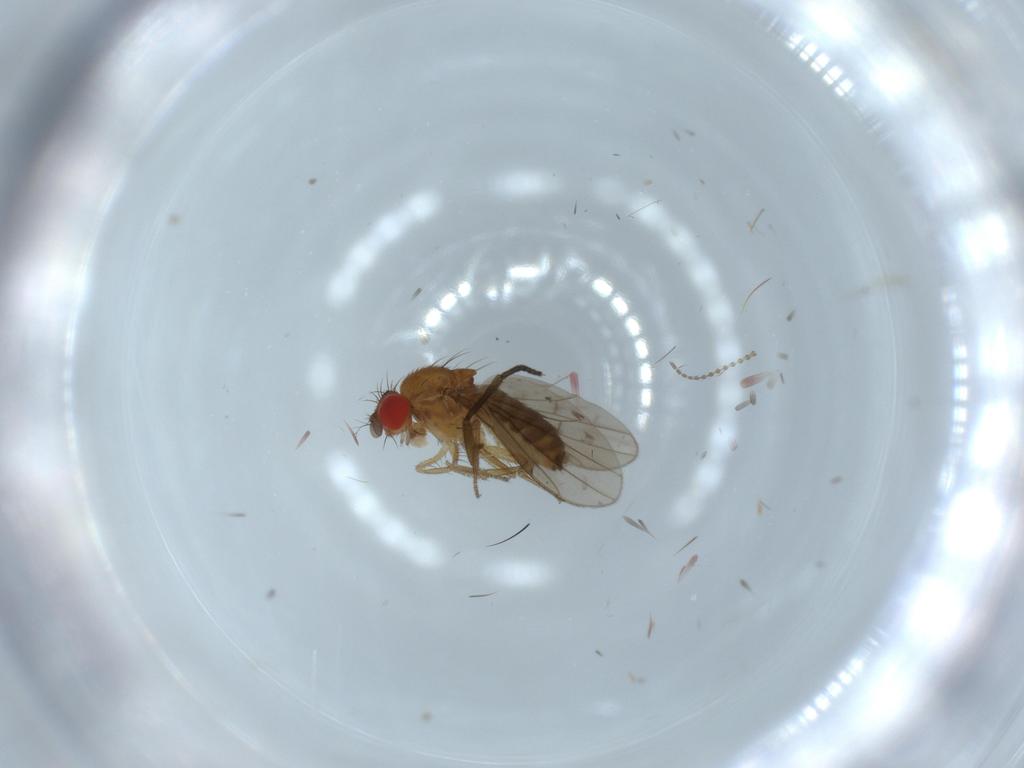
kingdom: Animalia
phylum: Arthropoda
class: Insecta
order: Diptera
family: Drosophilidae
